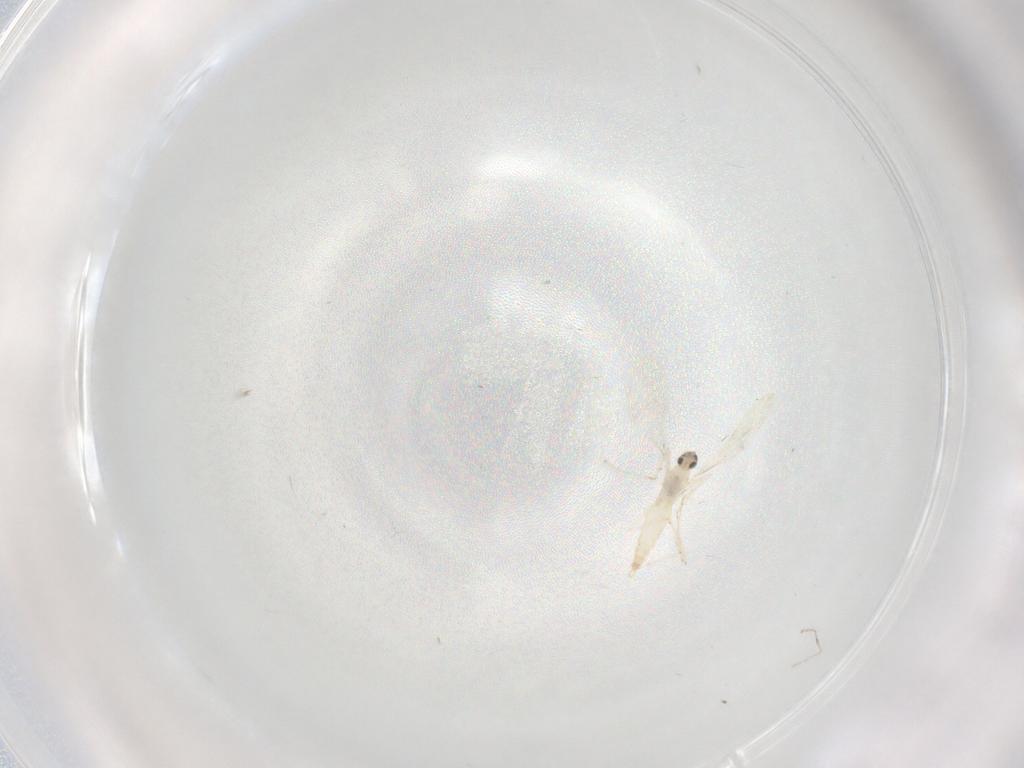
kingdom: Animalia
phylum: Arthropoda
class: Insecta
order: Diptera
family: Cecidomyiidae
